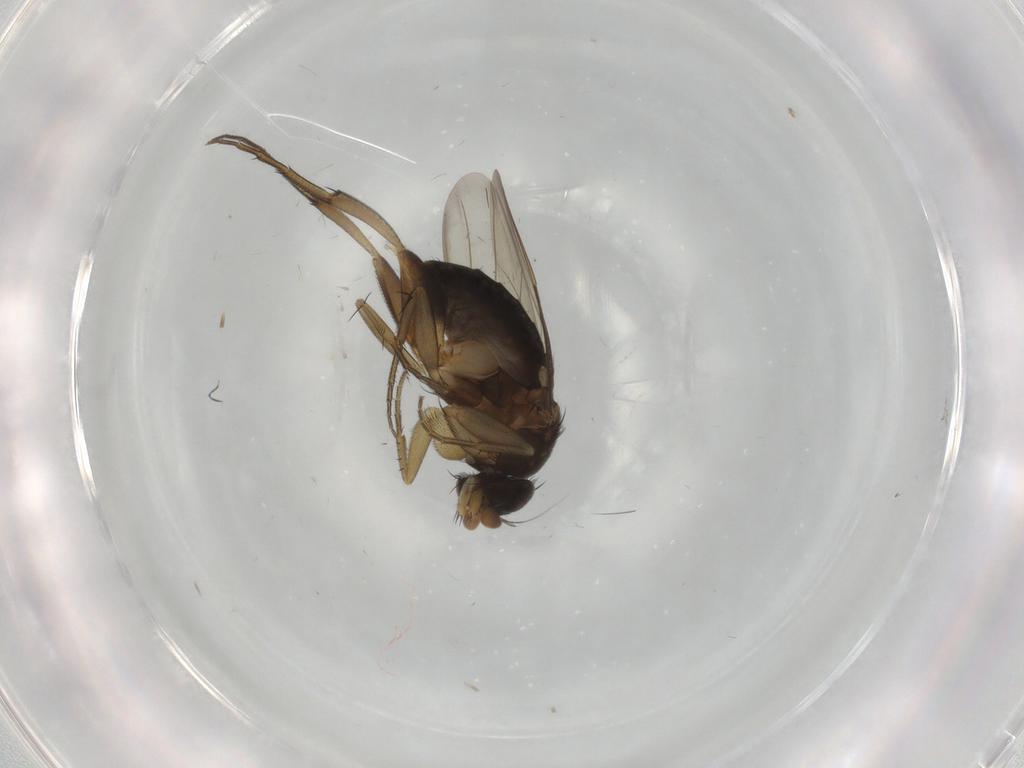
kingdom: Animalia
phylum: Arthropoda
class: Insecta
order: Diptera
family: Phoridae
